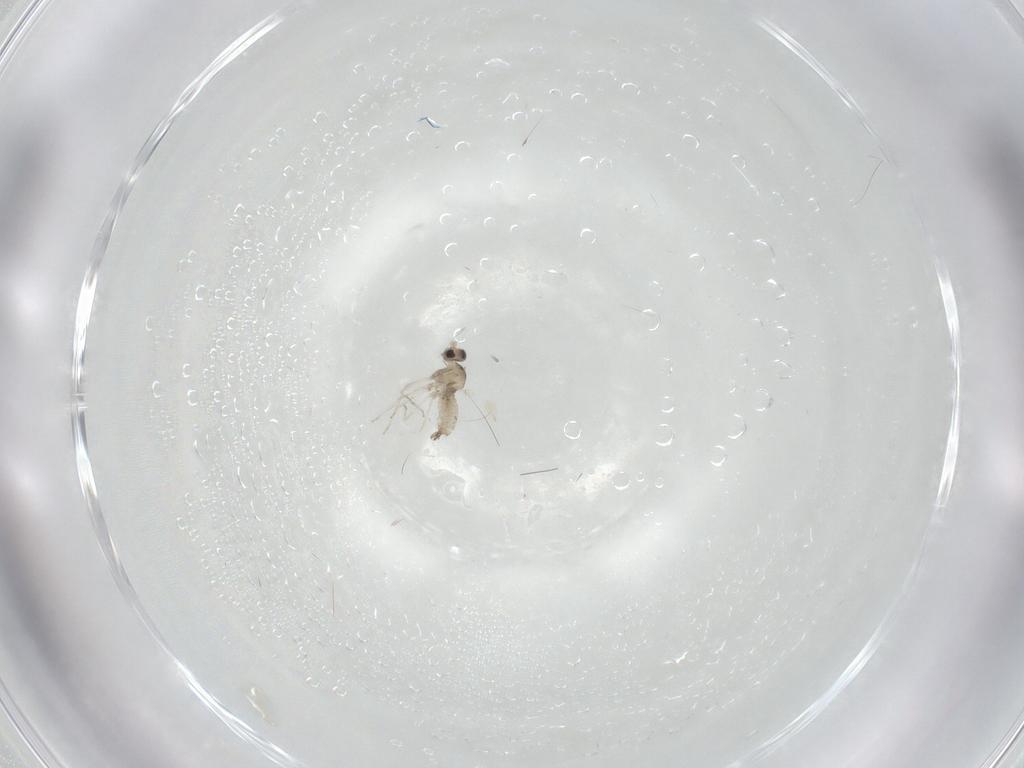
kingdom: Animalia
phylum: Arthropoda
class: Insecta
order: Diptera
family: Cecidomyiidae
